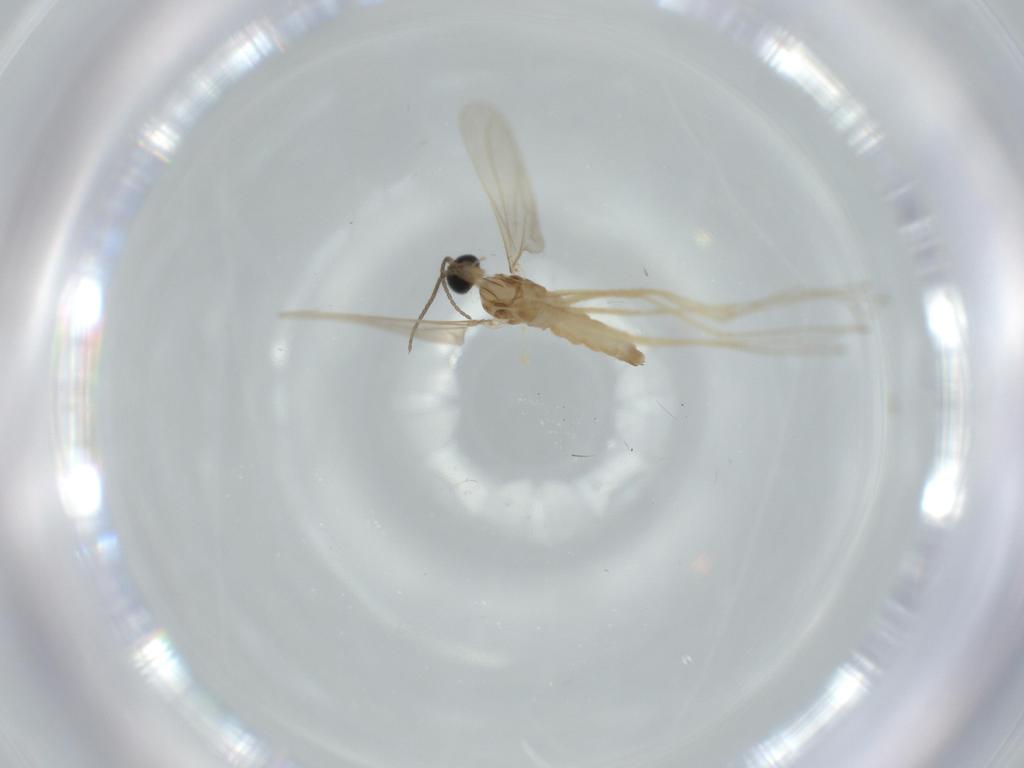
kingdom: Animalia
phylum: Arthropoda
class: Insecta
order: Diptera
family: Cecidomyiidae
